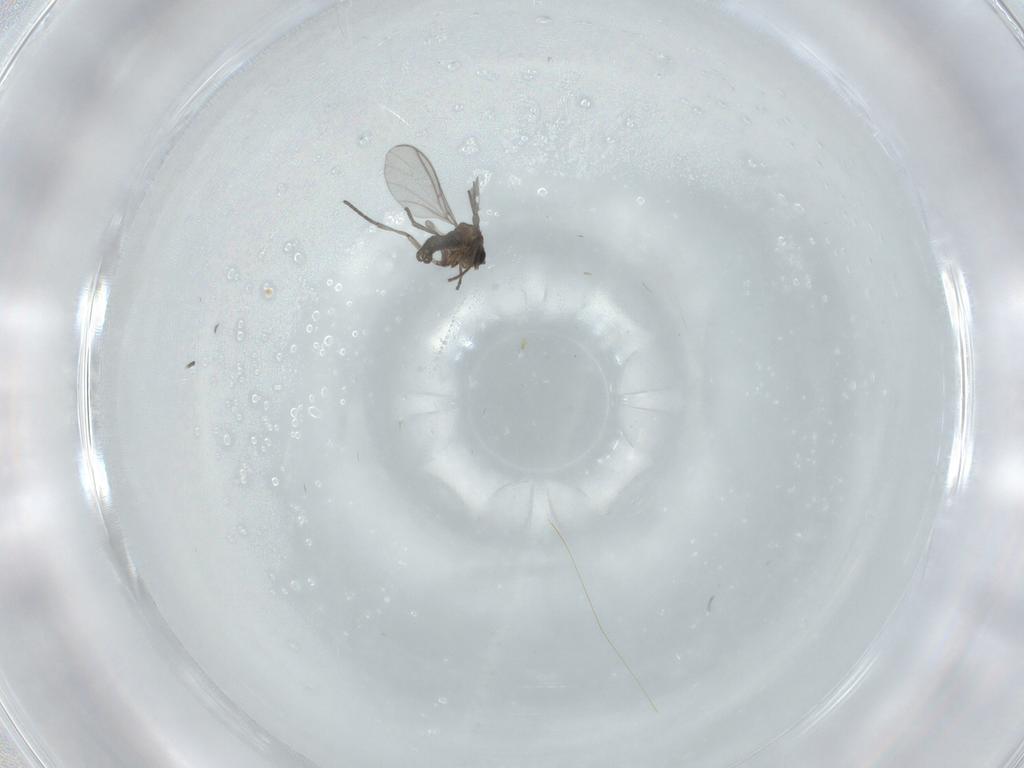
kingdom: Animalia
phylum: Arthropoda
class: Insecta
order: Diptera
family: Sciaridae
